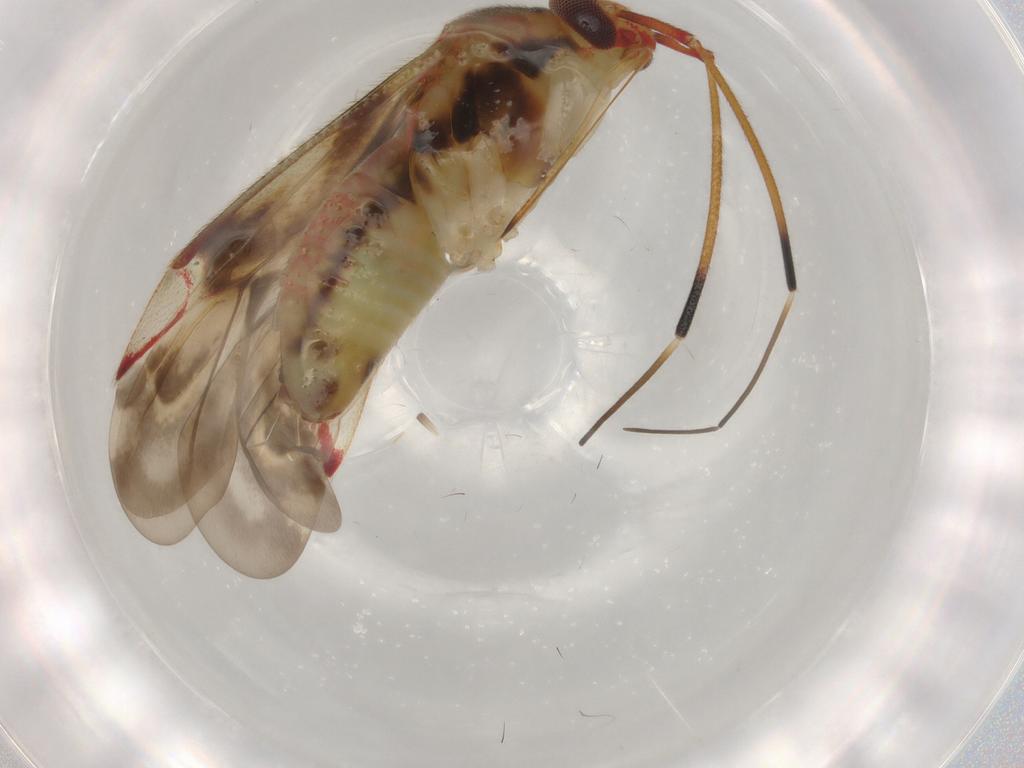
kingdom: Animalia
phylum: Arthropoda
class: Insecta
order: Hemiptera
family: Miridae
